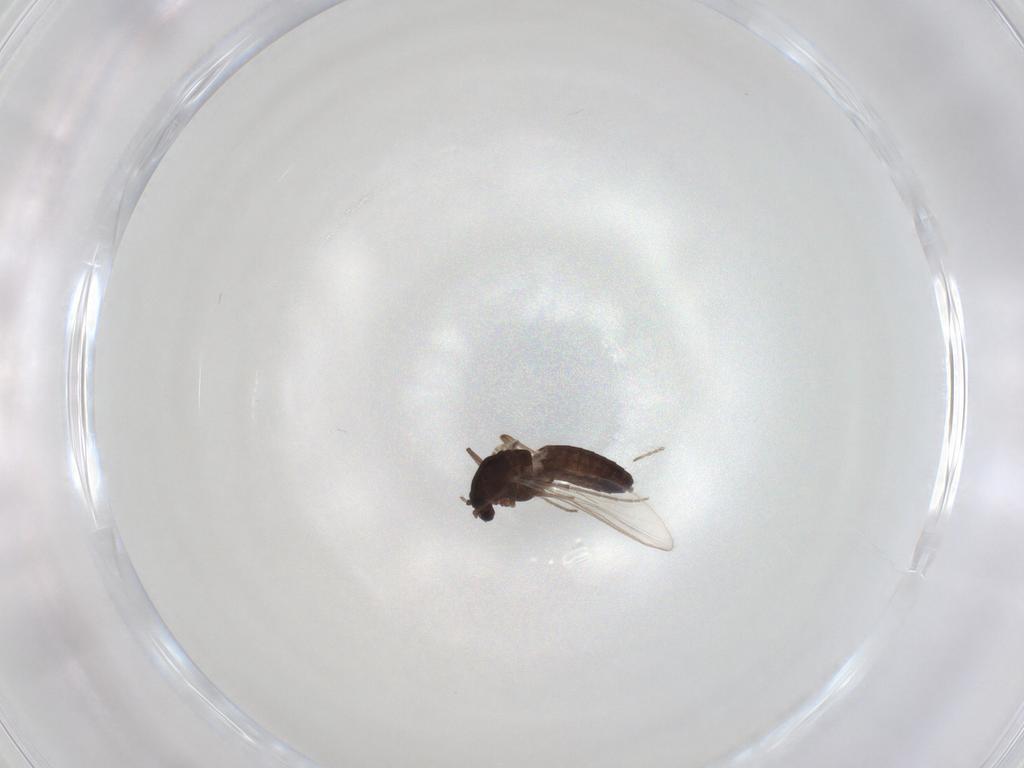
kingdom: Animalia
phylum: Arthropoda
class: Insecta
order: Diptera
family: Chironomidae
